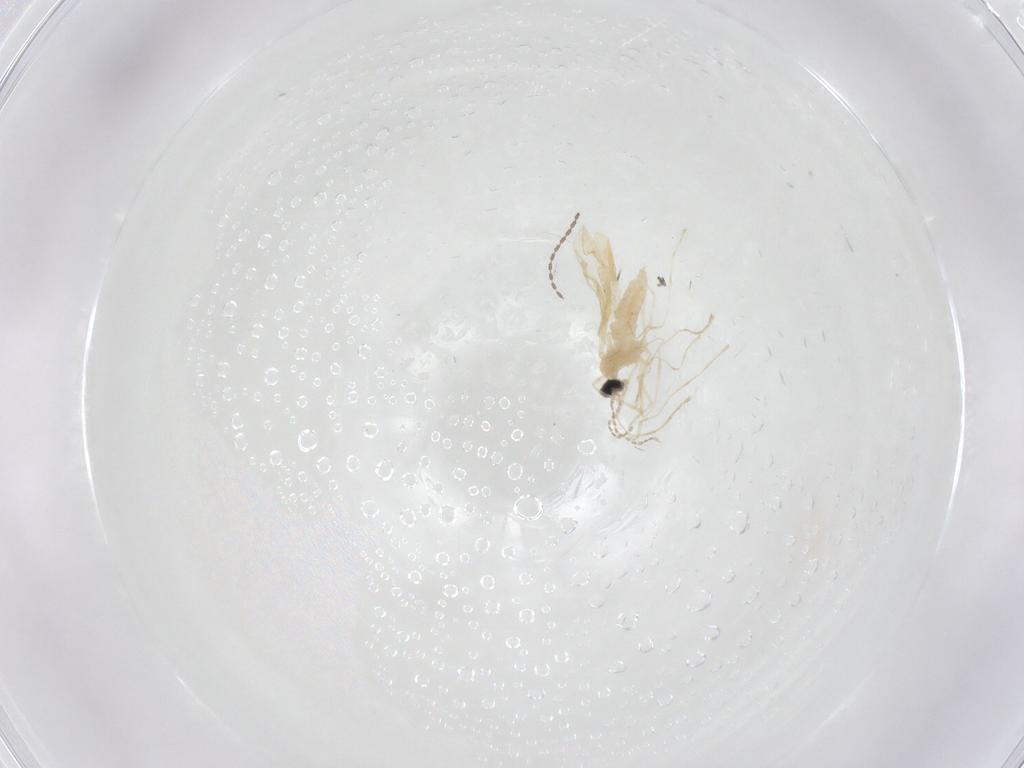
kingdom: Animalia
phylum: Arthropoda
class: Insecta
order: Diptera
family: Cecidomyiidae
